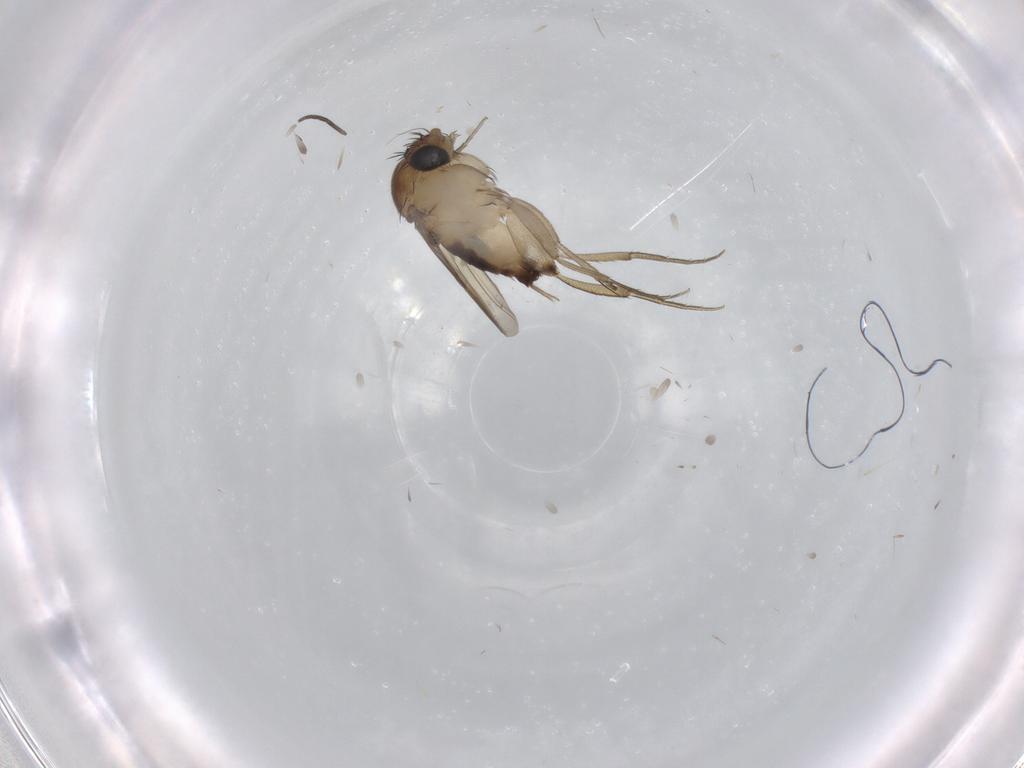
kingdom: Animalia
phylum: Arthropoda
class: Insecta
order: Diptera
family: Phoridae
